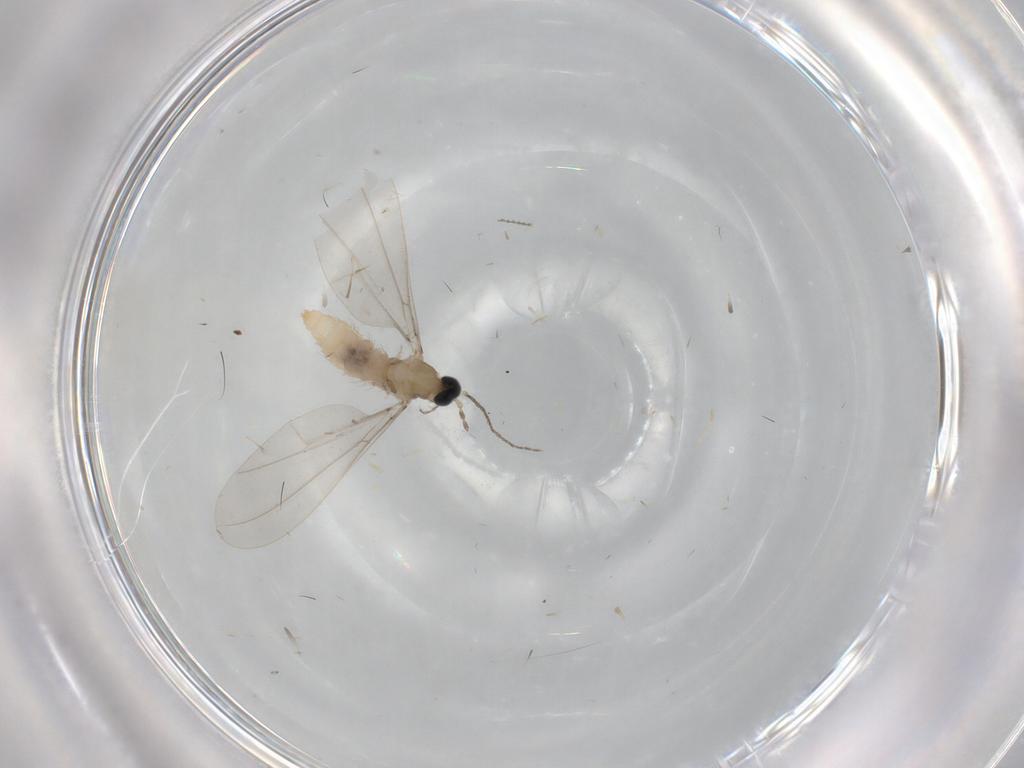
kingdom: Animalia
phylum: Arthropoda
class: Insecta
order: Diptera
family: Cecidomyiidae
